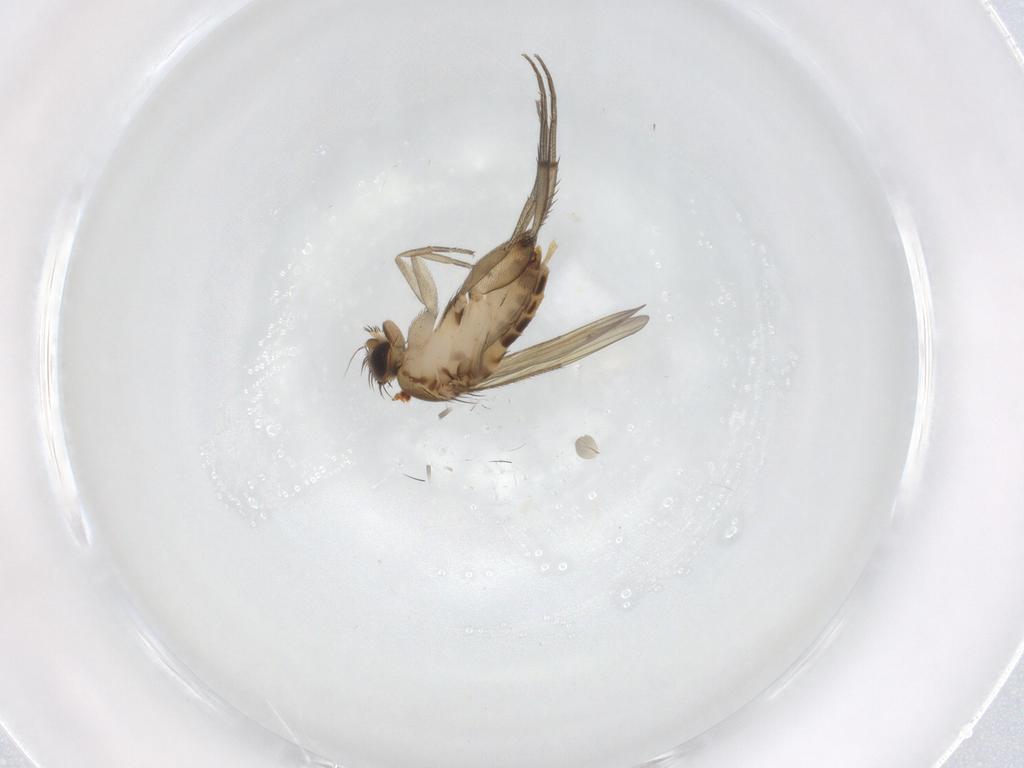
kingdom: Animalia
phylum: Arthropoda
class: Insecta
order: Diptera
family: Phoridae
